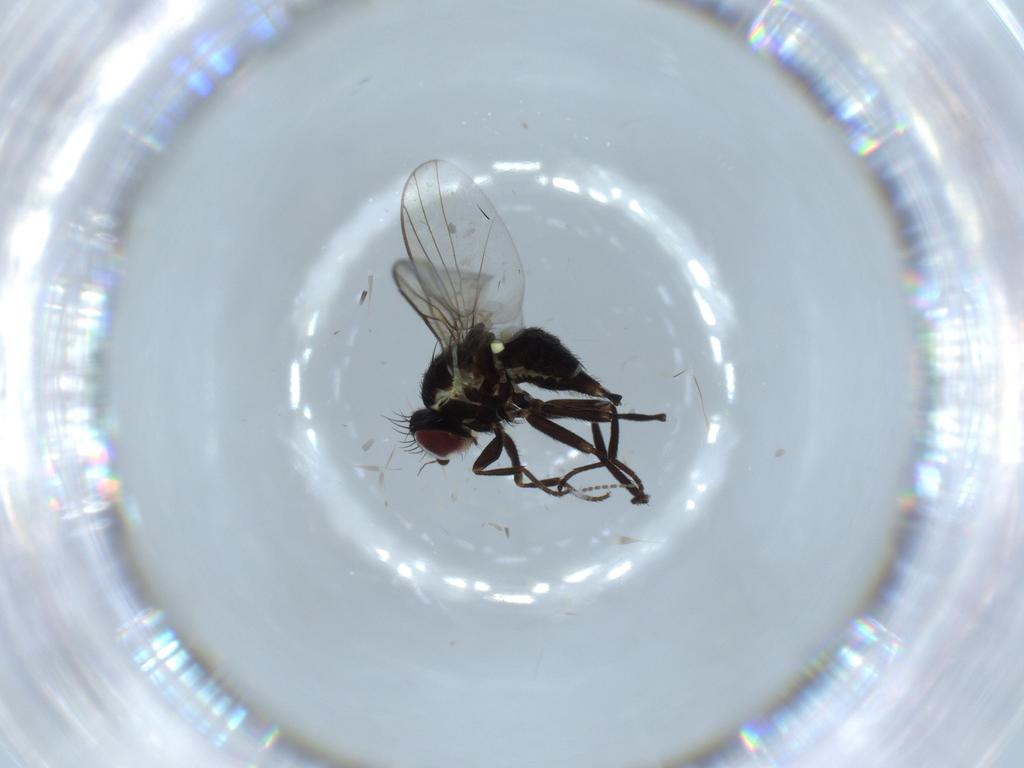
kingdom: Animalia
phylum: Arthropoda
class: Insecta
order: Diptera
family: Agromyzidae
